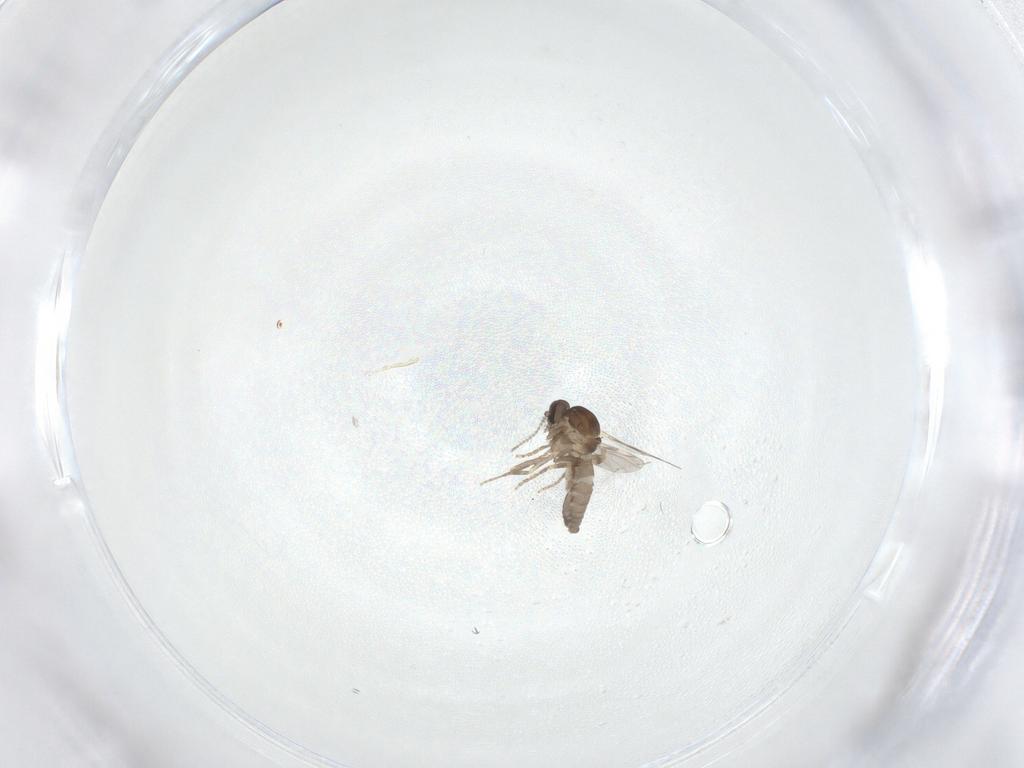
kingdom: Animalia
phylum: Arthropoda
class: Insecta
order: Diptera
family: Ceratopogonidae
